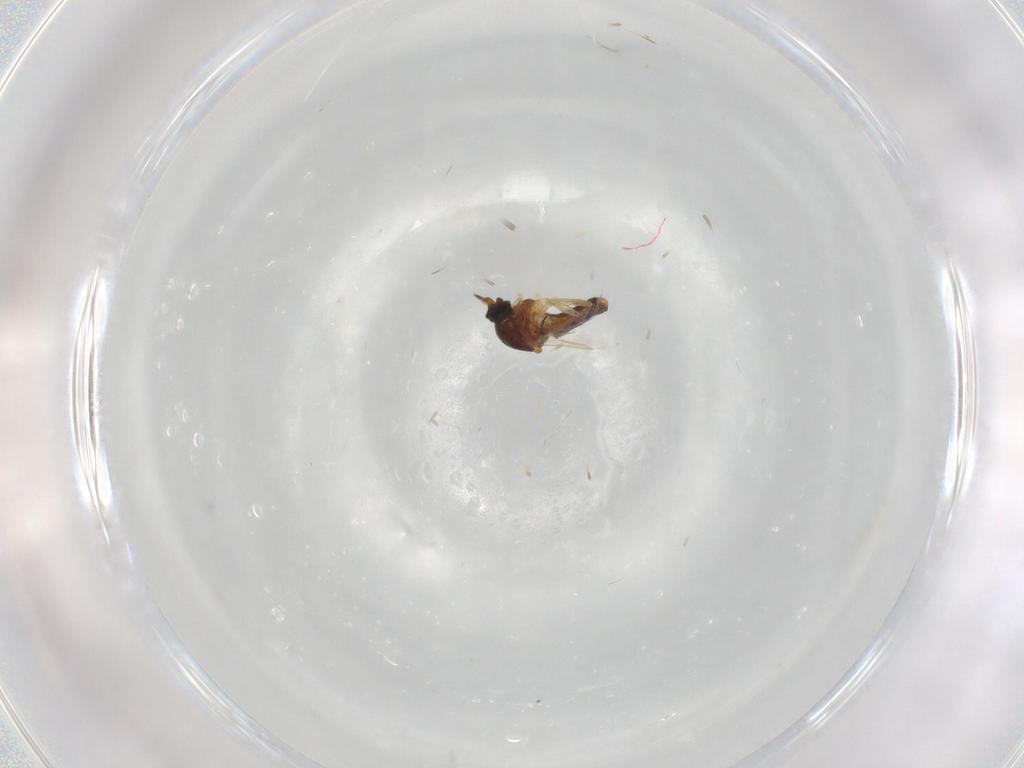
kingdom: Animalia
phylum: Arthropoda
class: Insecta
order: Diptera
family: Ceratopogonidae
